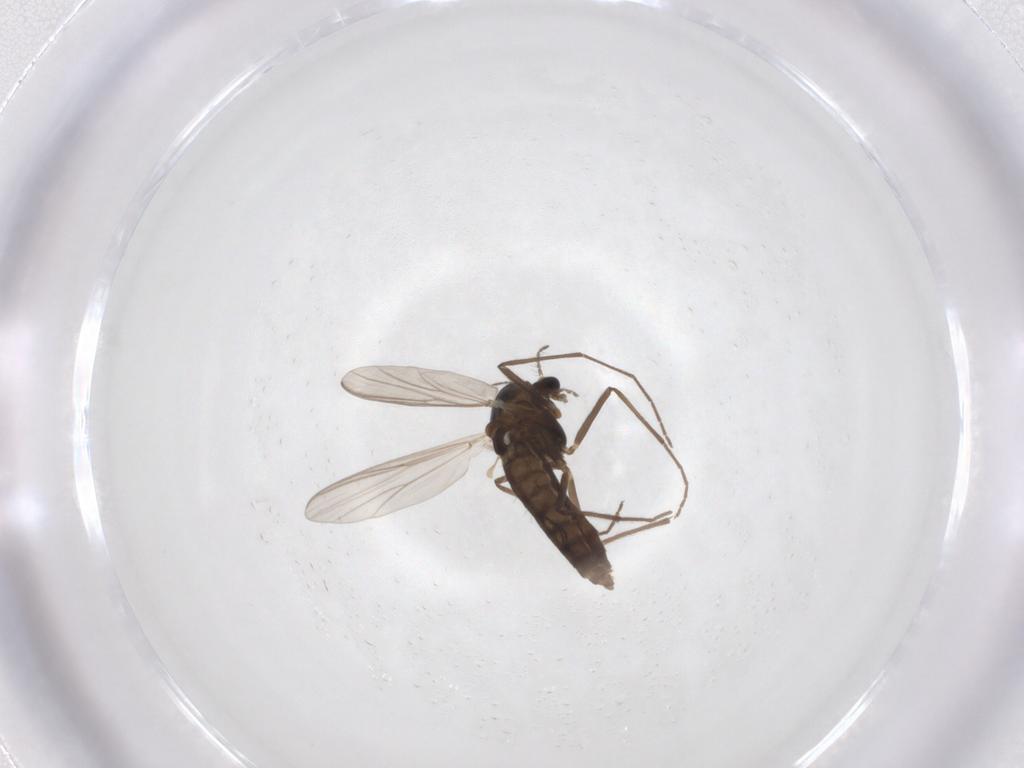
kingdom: Animalia
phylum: Arthropoda
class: Insecta
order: Diptera
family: Chironomidae
